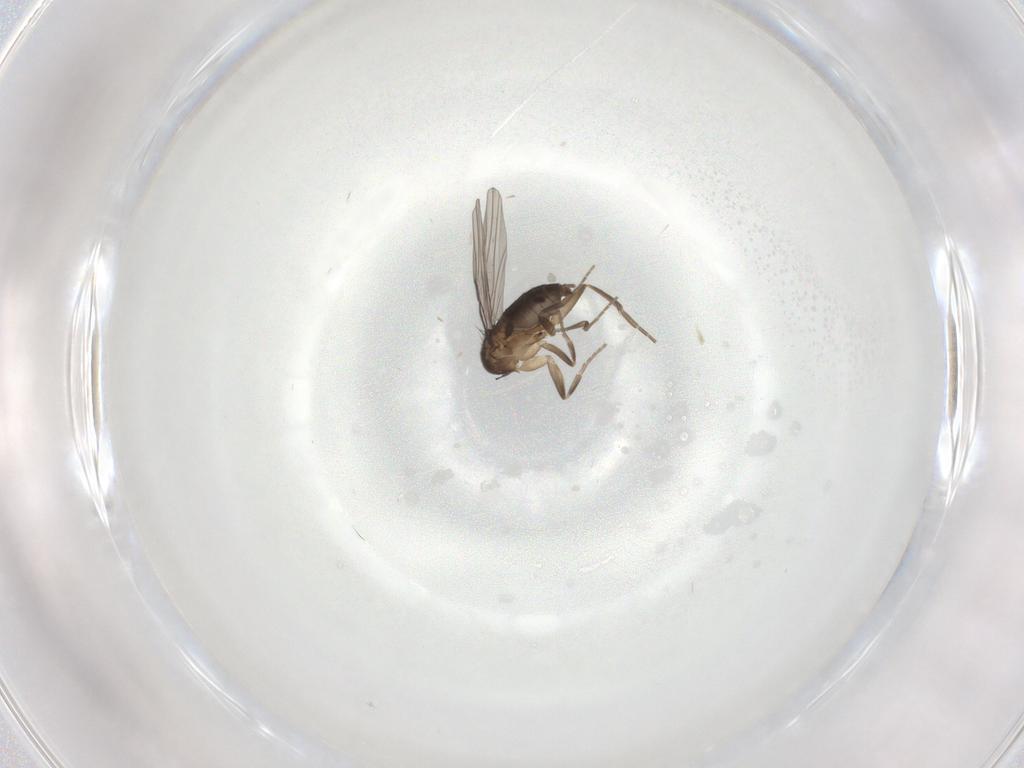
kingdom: Animalia
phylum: Arthropoda
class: Insecta
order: Diptera
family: Phoridae
